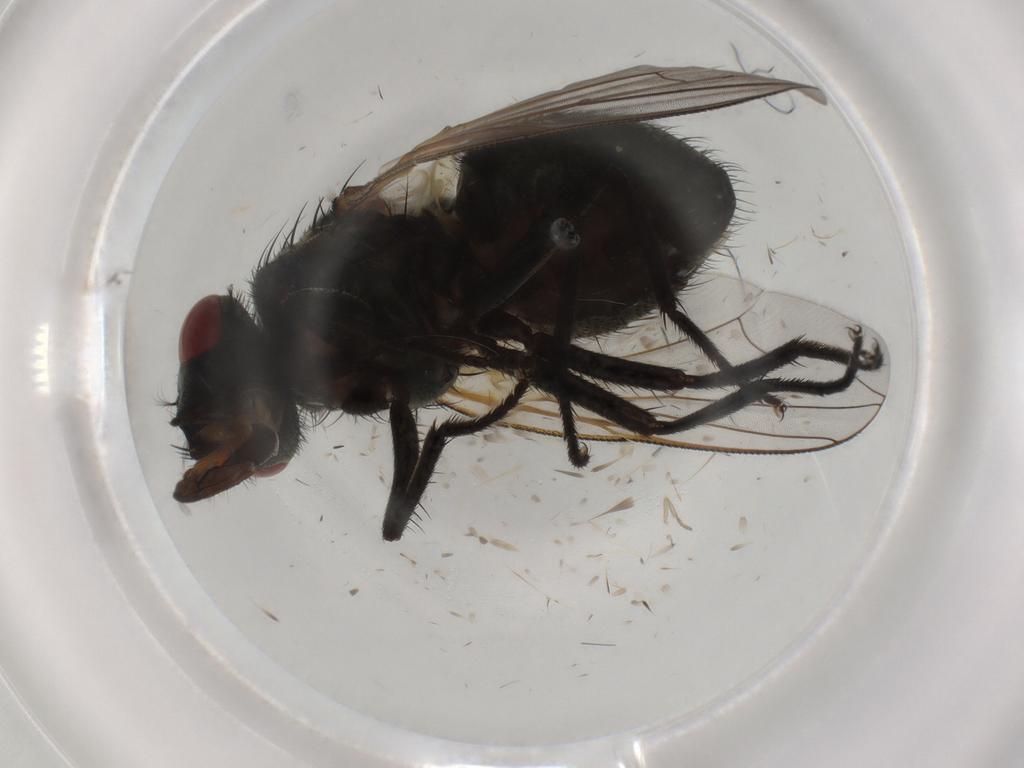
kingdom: Animalia
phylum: Arthropoda
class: Insecta
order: Diptera
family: Muscidae
